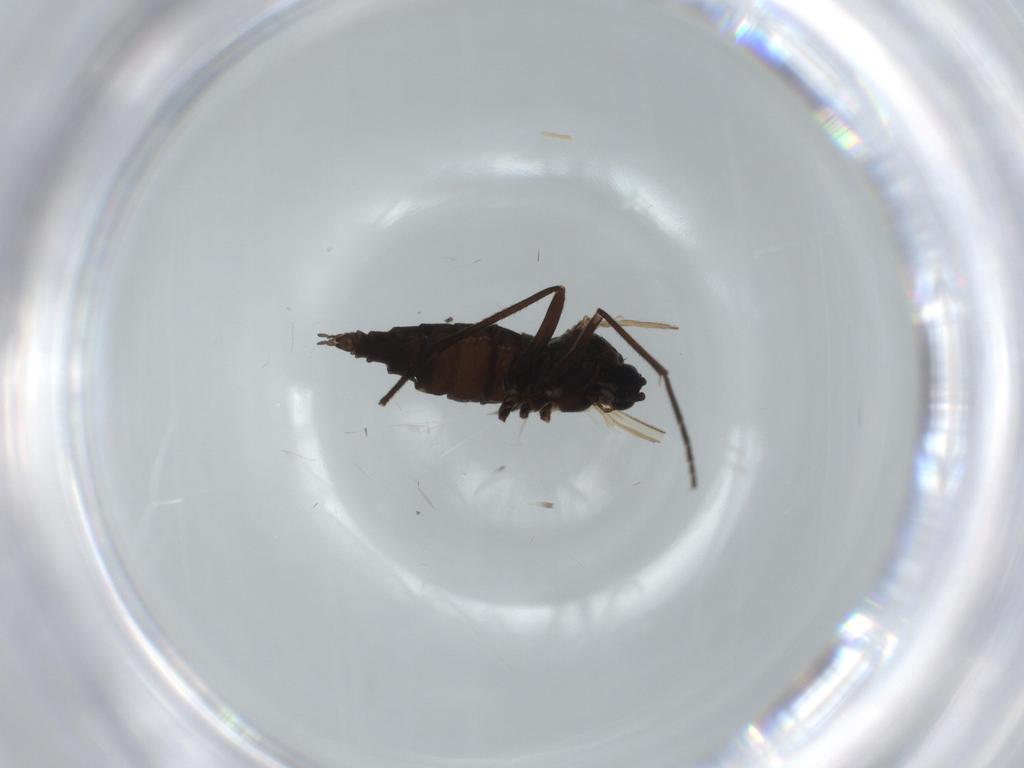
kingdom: Animalia
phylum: Arthropoda
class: Insecta
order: Diptera
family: Sciaridae
